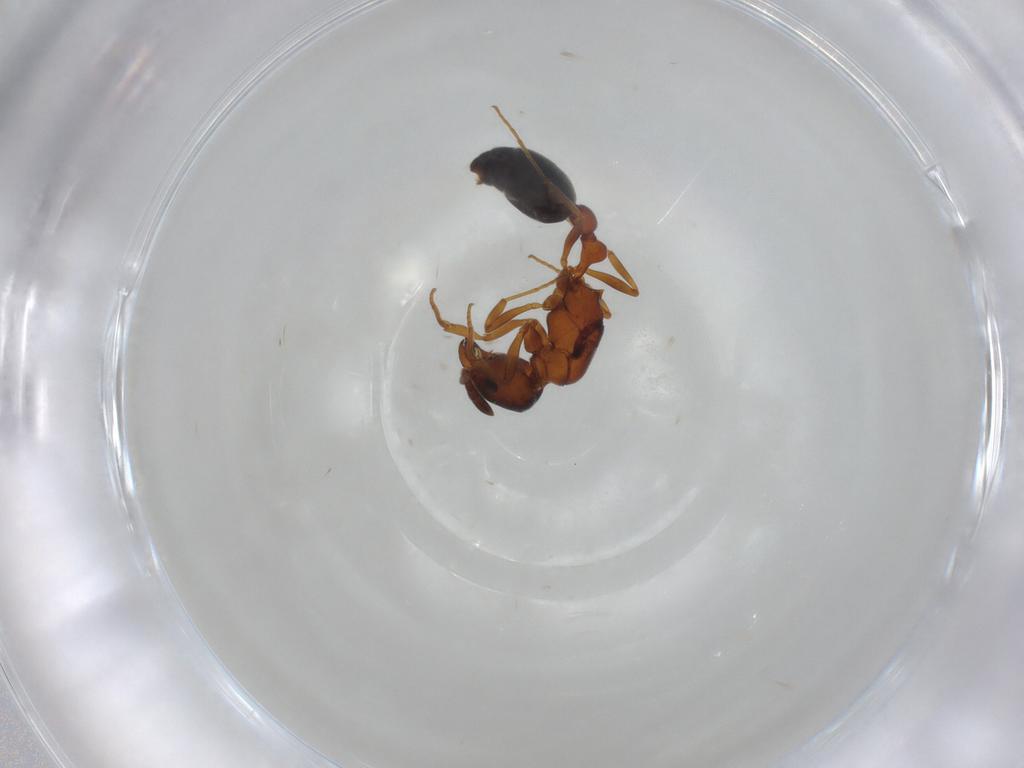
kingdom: Animalia
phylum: Arthropoda
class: Insecta
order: Hymenoptera
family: Formicidae
